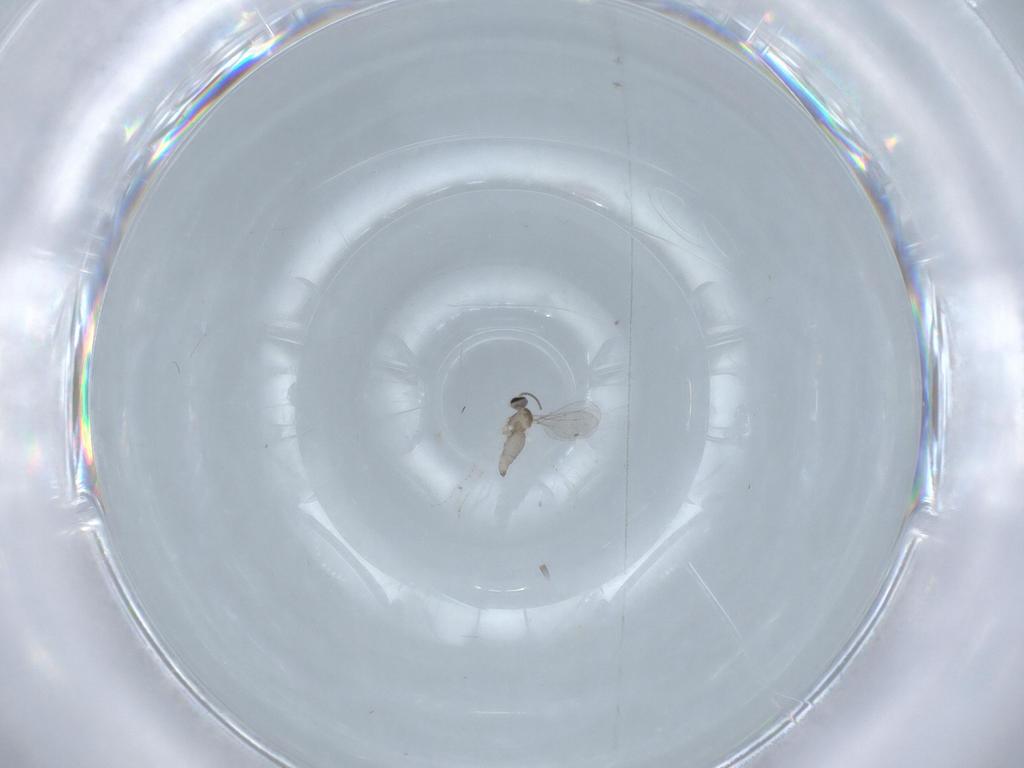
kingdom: Animalia
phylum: Arthropoda
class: Insecta
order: Diptera
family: Cecidomyiidae
